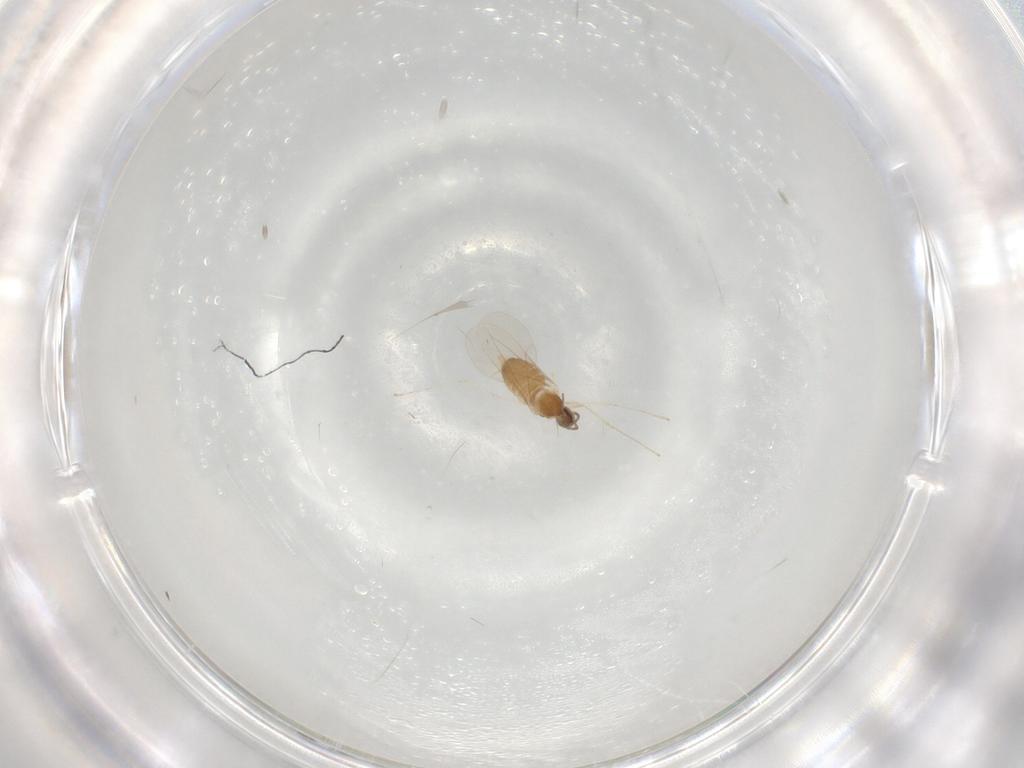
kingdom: Animalia
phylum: Arthropoda
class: Insecta
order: Diptera
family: Cecidomyiidae
